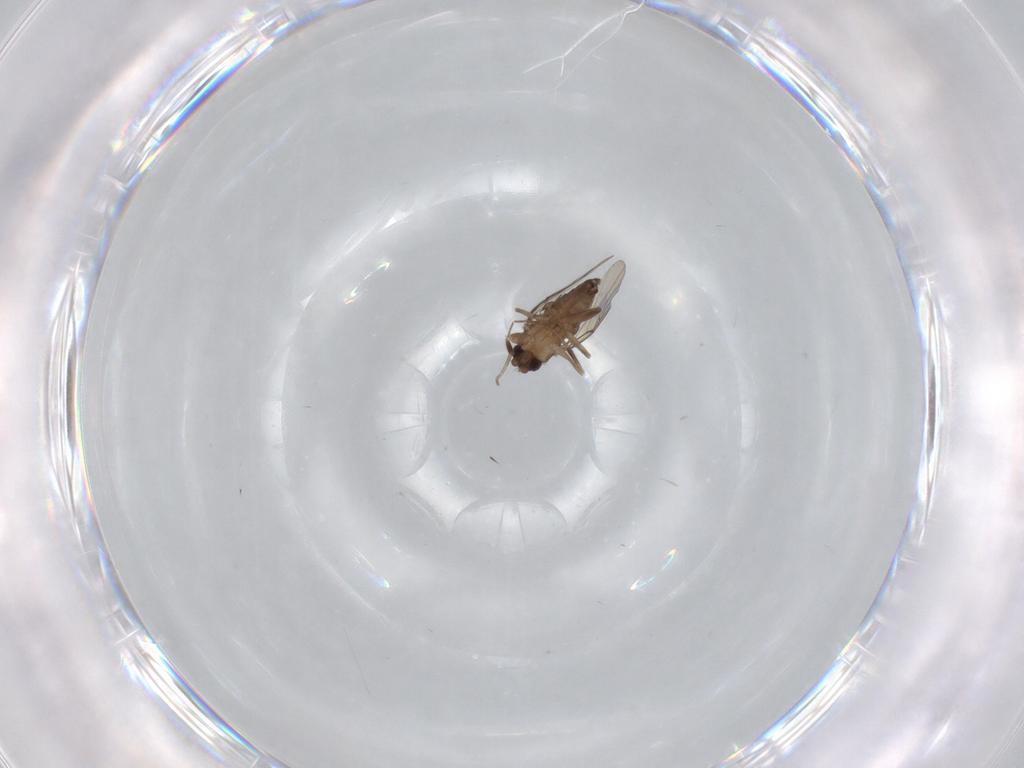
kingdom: Animalia
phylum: Arthropoda
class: Insecta
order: Diptera
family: Phoridae
